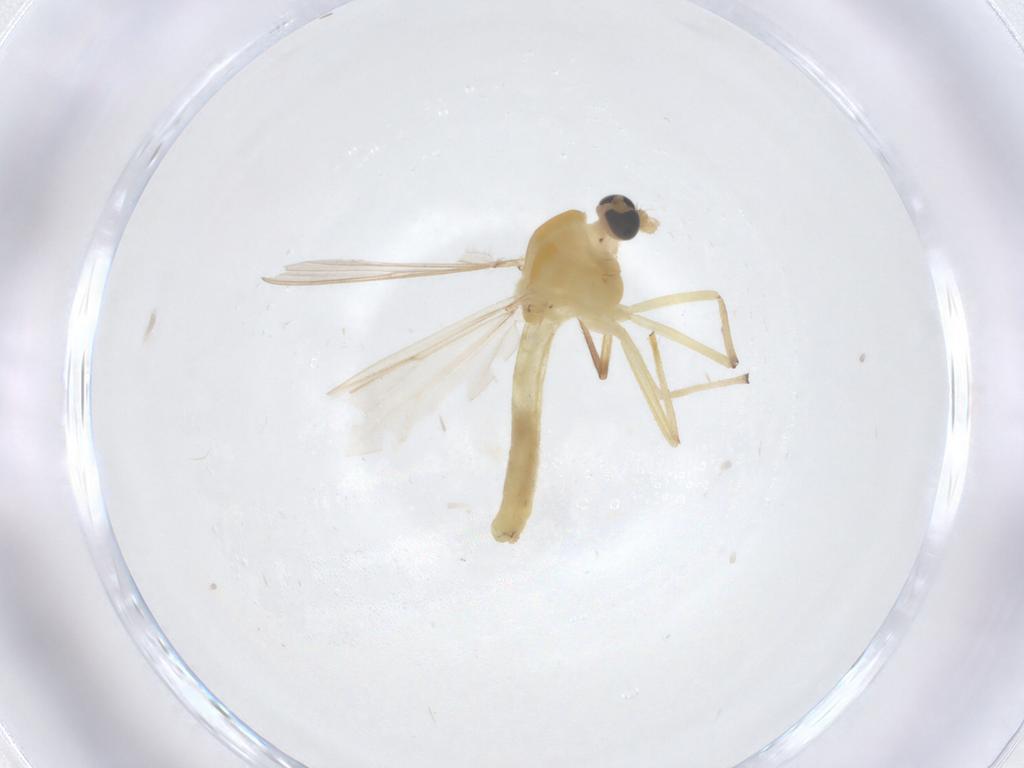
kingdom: Animalia
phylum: Arthropoda
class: Insecta
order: Diptera
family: Chironomidae
